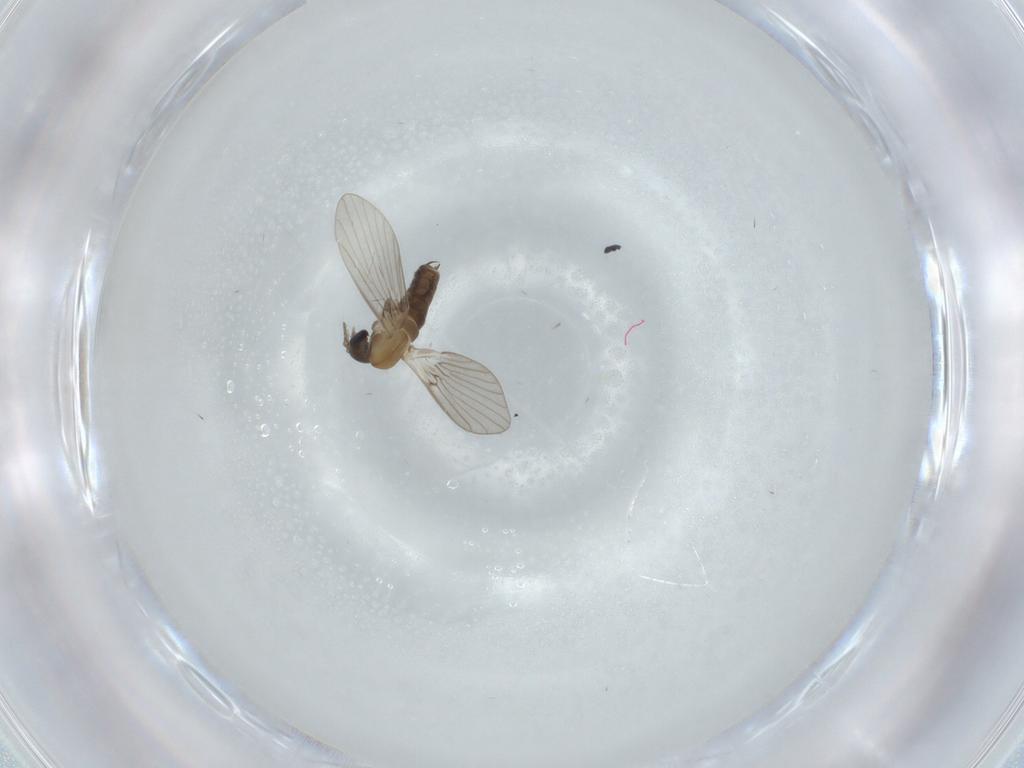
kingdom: Animalia
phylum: Arthropoda
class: Insecta
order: Diptera
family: Psychodidae
